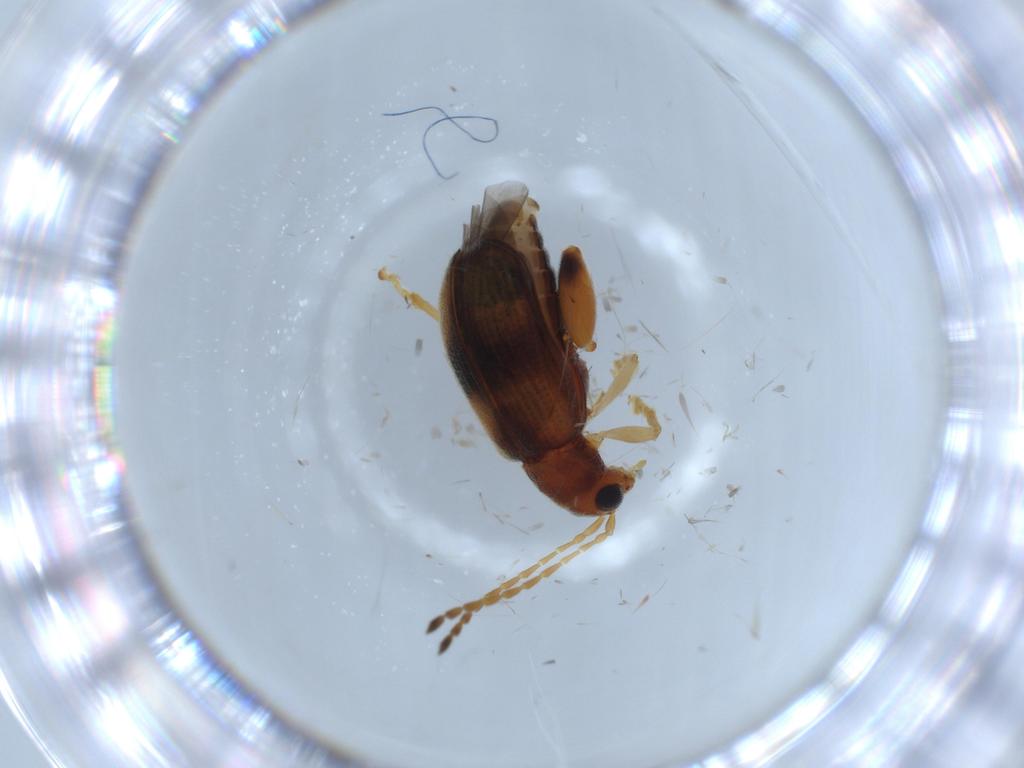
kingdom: Animalia
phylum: Arthropoda
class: Insecta
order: Coleoptera
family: Chrysomelidae
